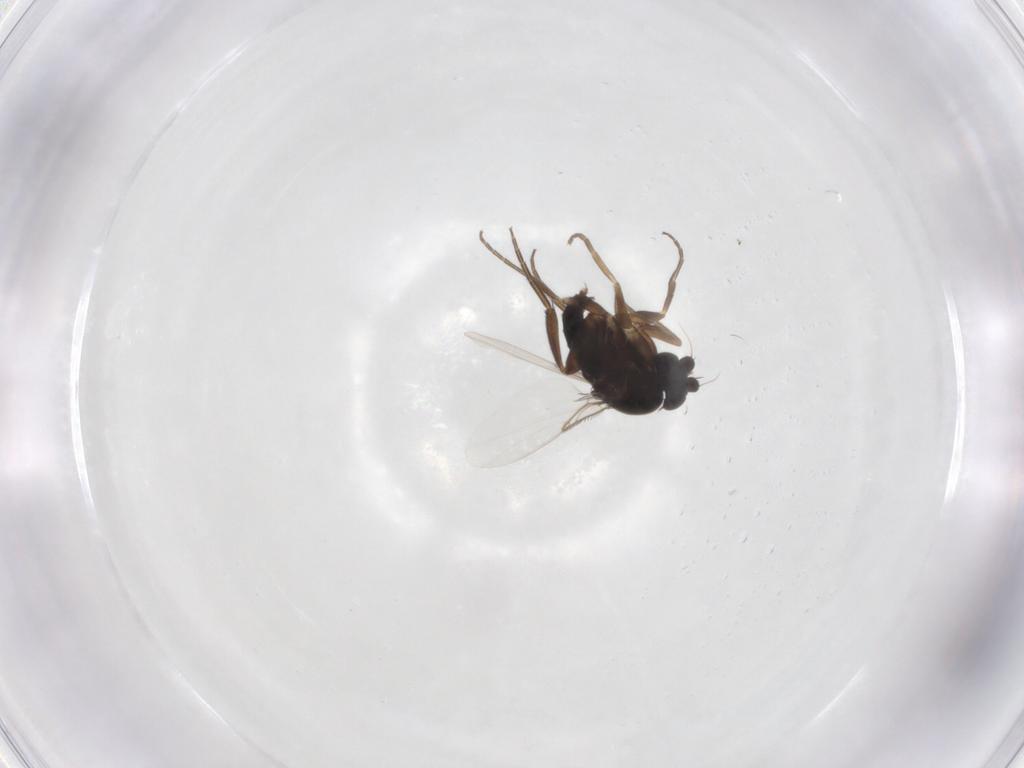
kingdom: Animalia
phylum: Arthropoda
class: Insecta
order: Diptera
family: Phoridae
